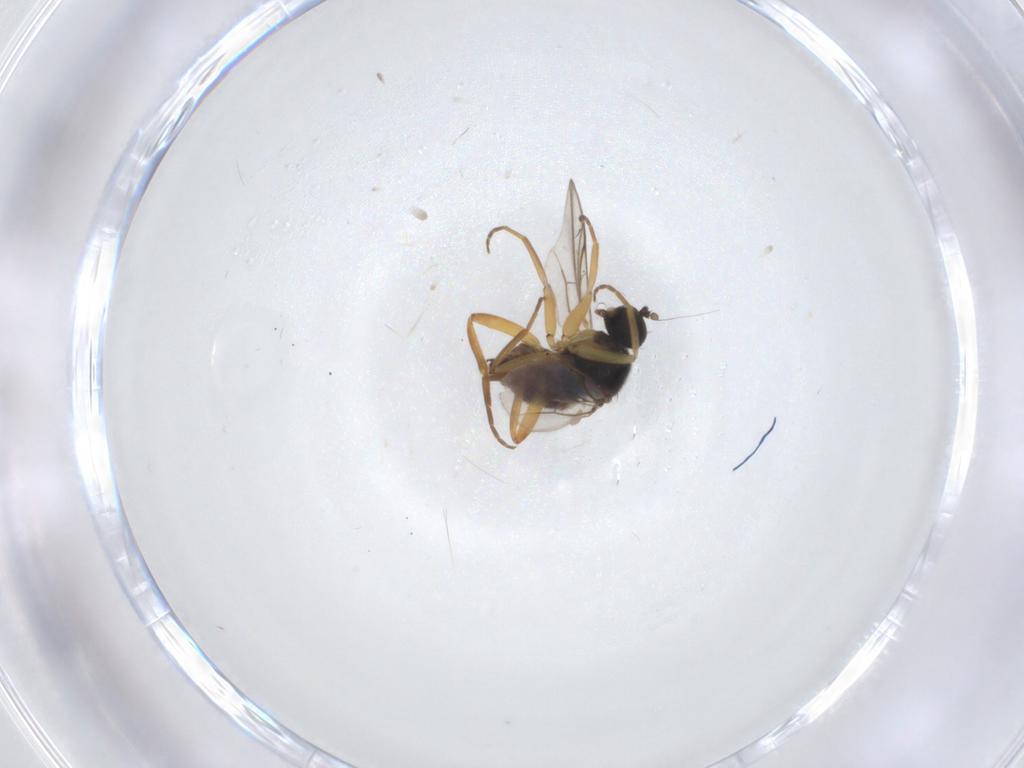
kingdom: Animalia
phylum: Arthropoda
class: Insecta
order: Diptera
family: Hybotidae
